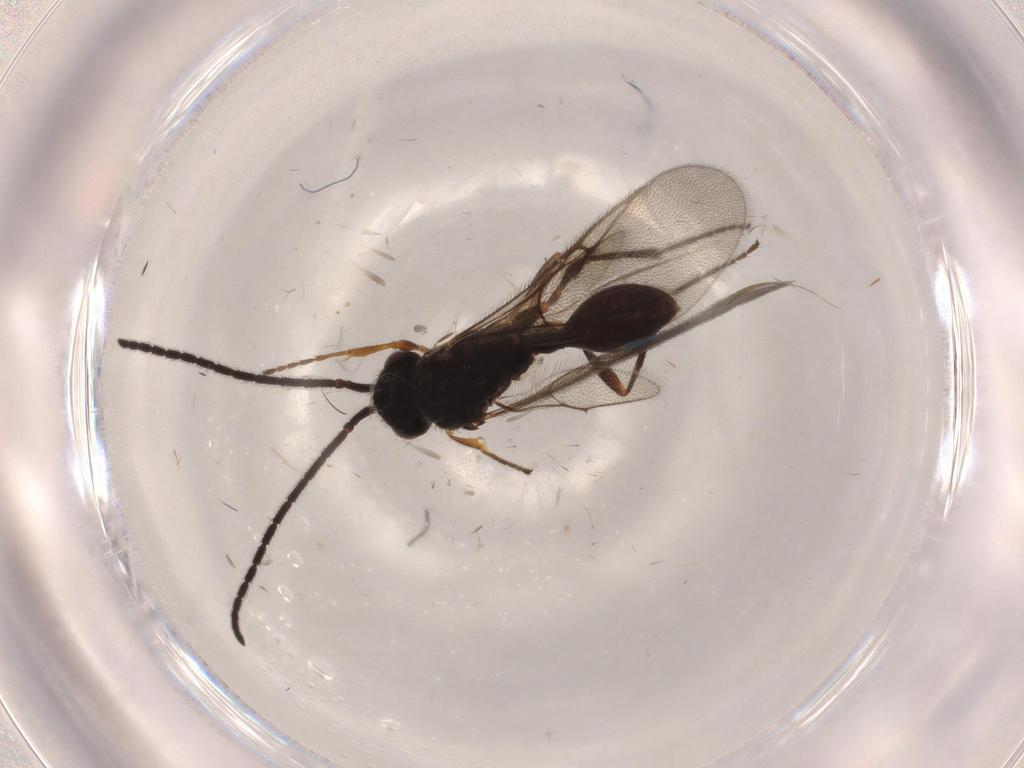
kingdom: Animalia
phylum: Arthropoda
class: Insecta
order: Hymenoptera
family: Diapriidae
